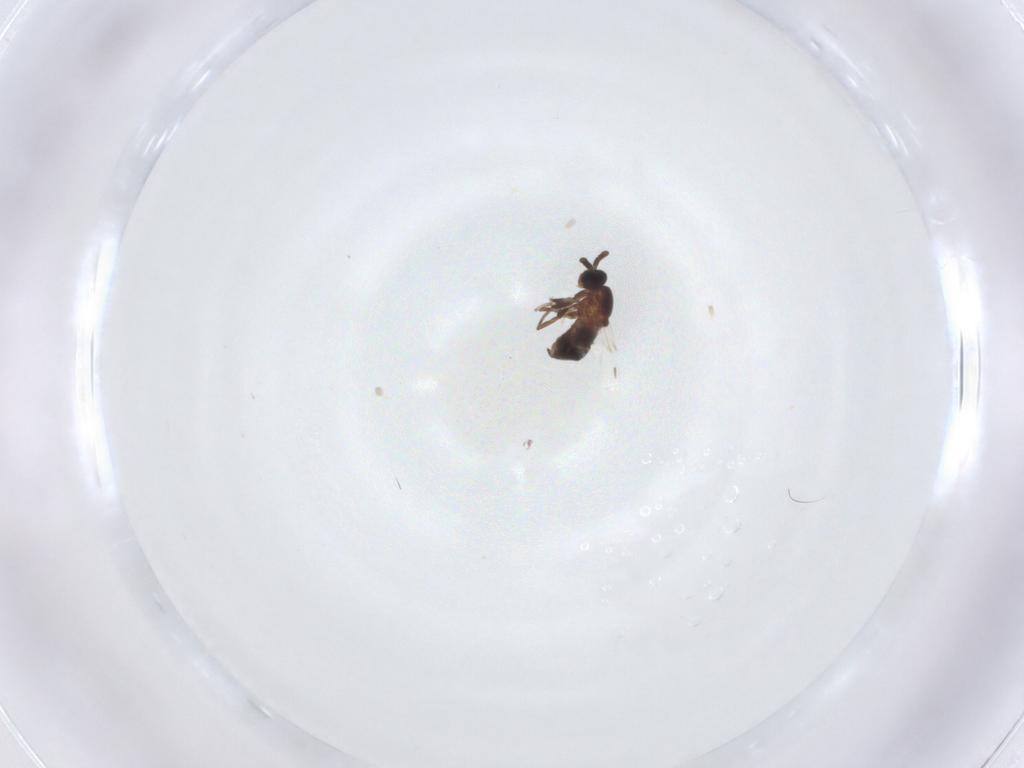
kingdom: Animalia
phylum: Arthropoda
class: Insecta
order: Diptera
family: Scatopsidae
